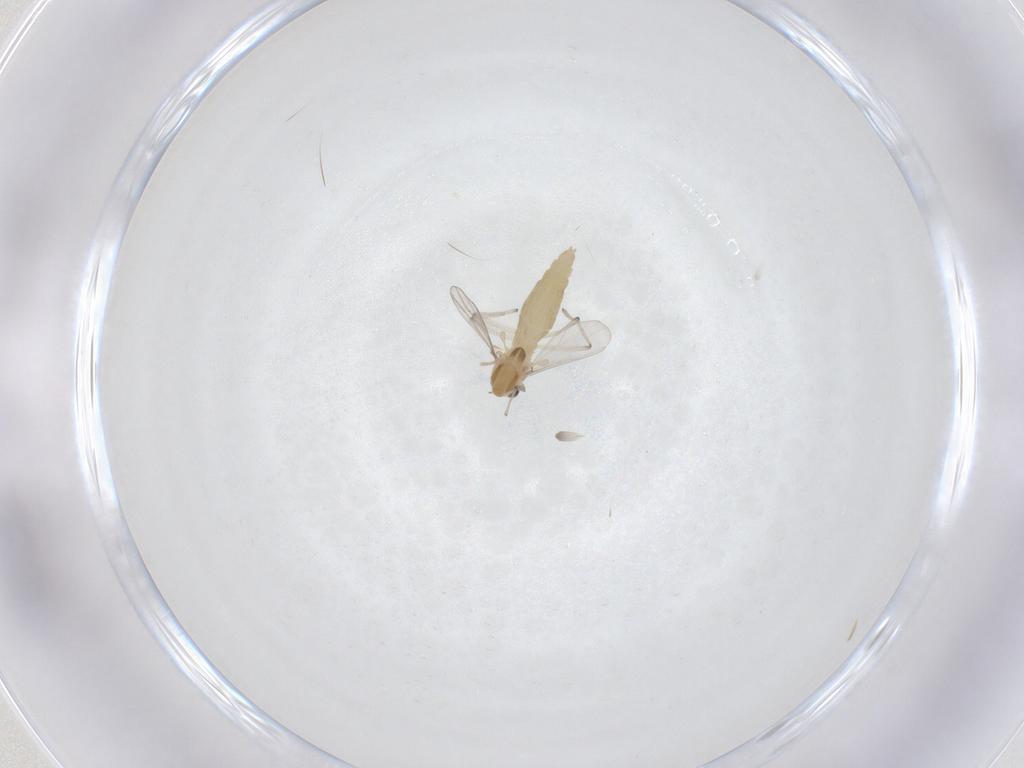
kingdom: Animalia
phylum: Arthropoda
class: Insecta
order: Diptera
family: Chironomidae
